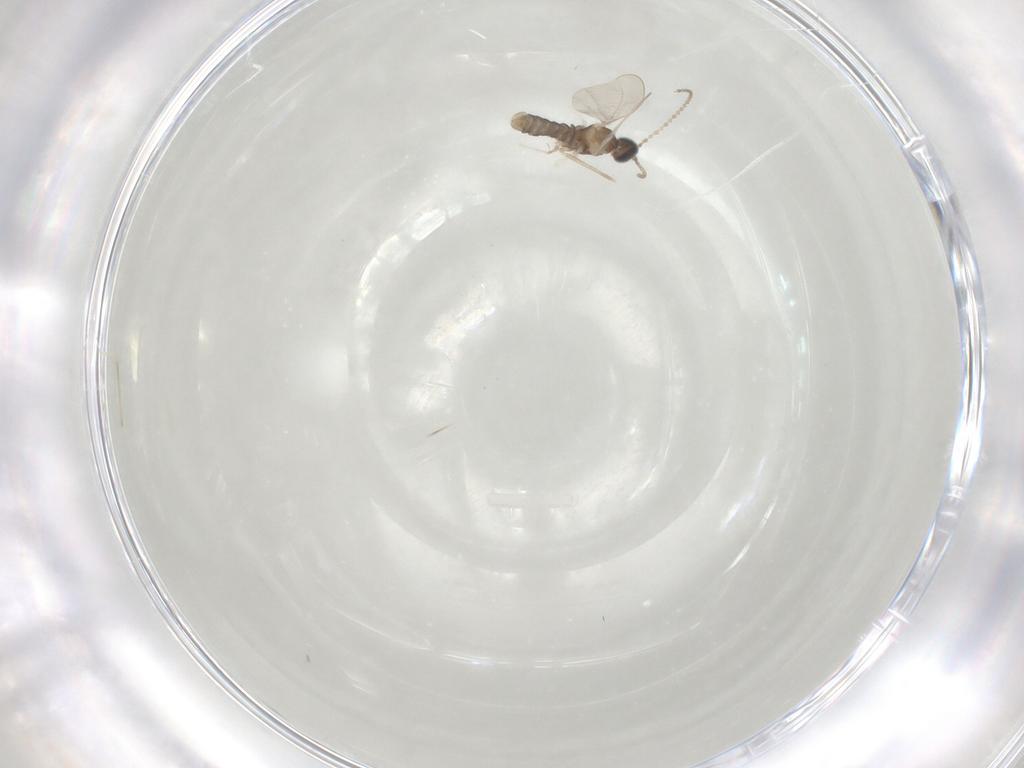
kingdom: Animalia
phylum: Arthropoda
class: Insecta
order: Diptera
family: Cecidomyiidae
